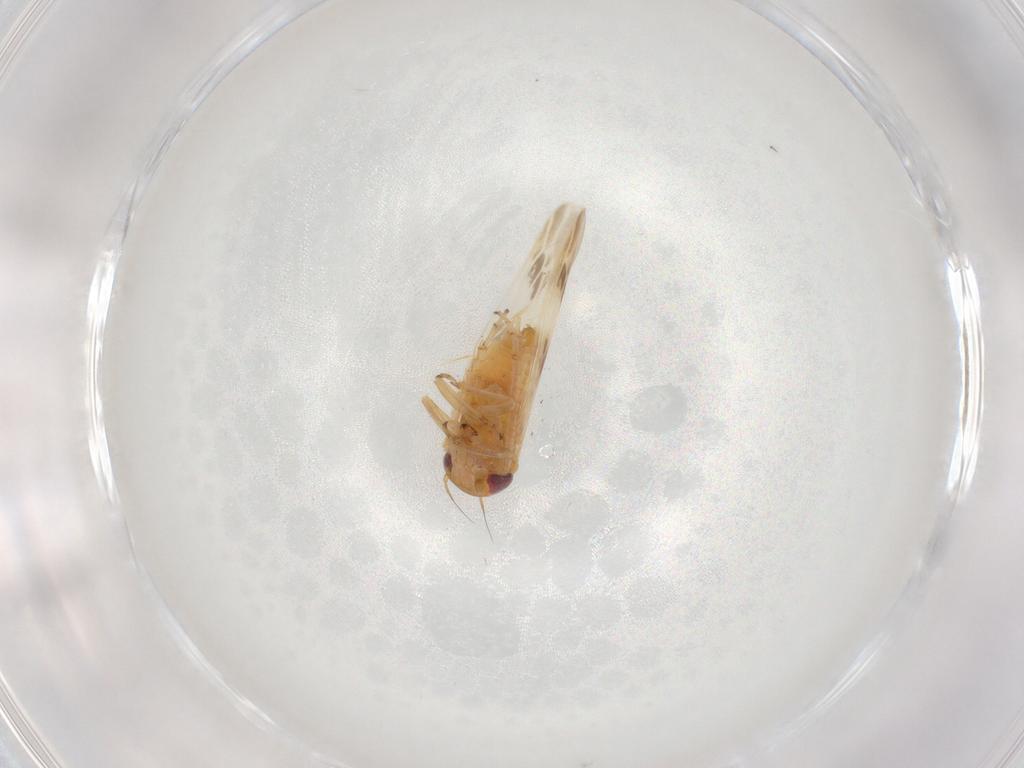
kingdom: Animalia
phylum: Arthropoda
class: Insecta
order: Hemiptera
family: Cicadellidae
